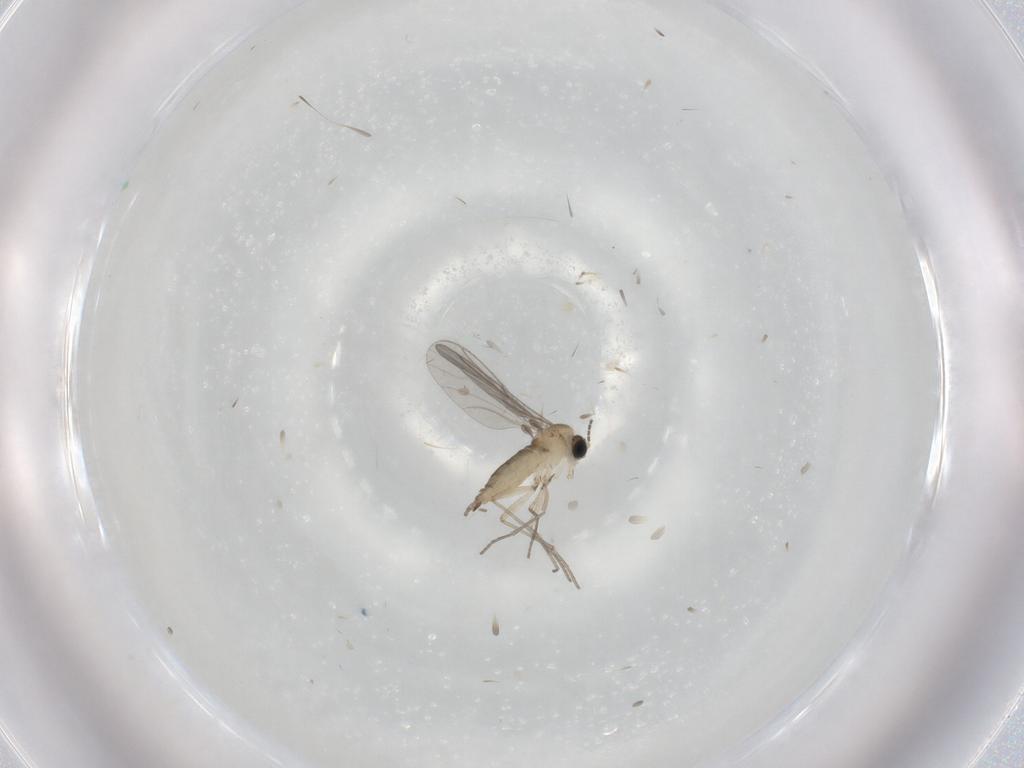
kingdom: Animalia
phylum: Arthropoda
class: Insecta
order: Diptera
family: Sciaridae
